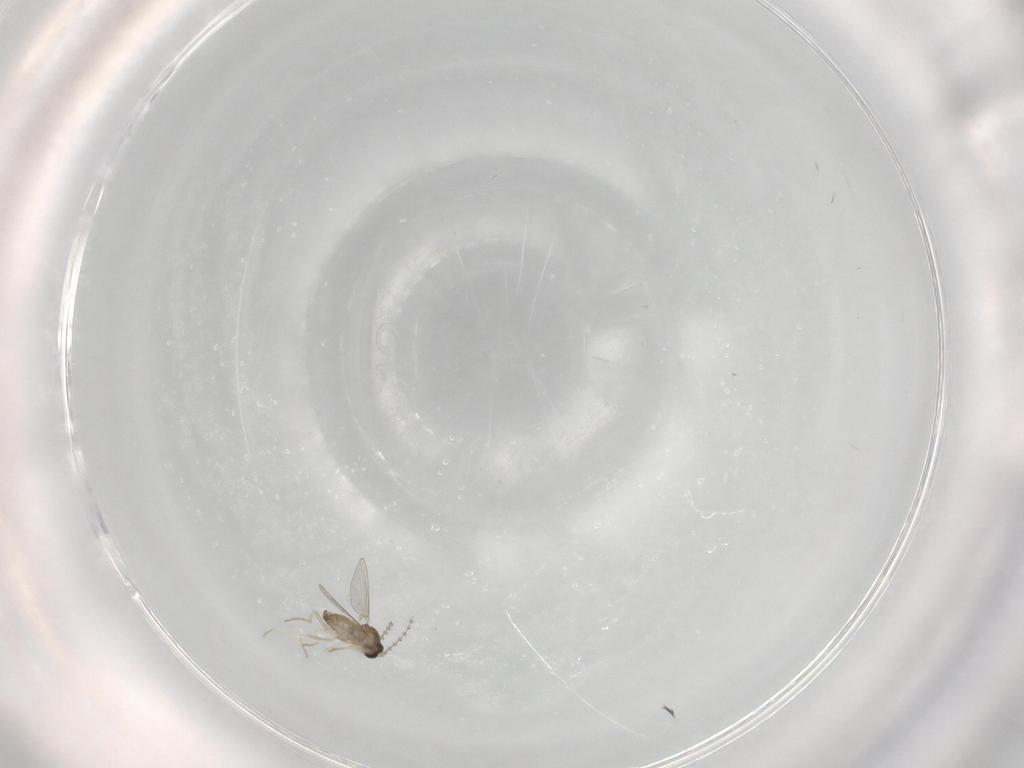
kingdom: Animalia
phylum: Arthropoda
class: Insecta
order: Diptera
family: Cecidomyiidae
